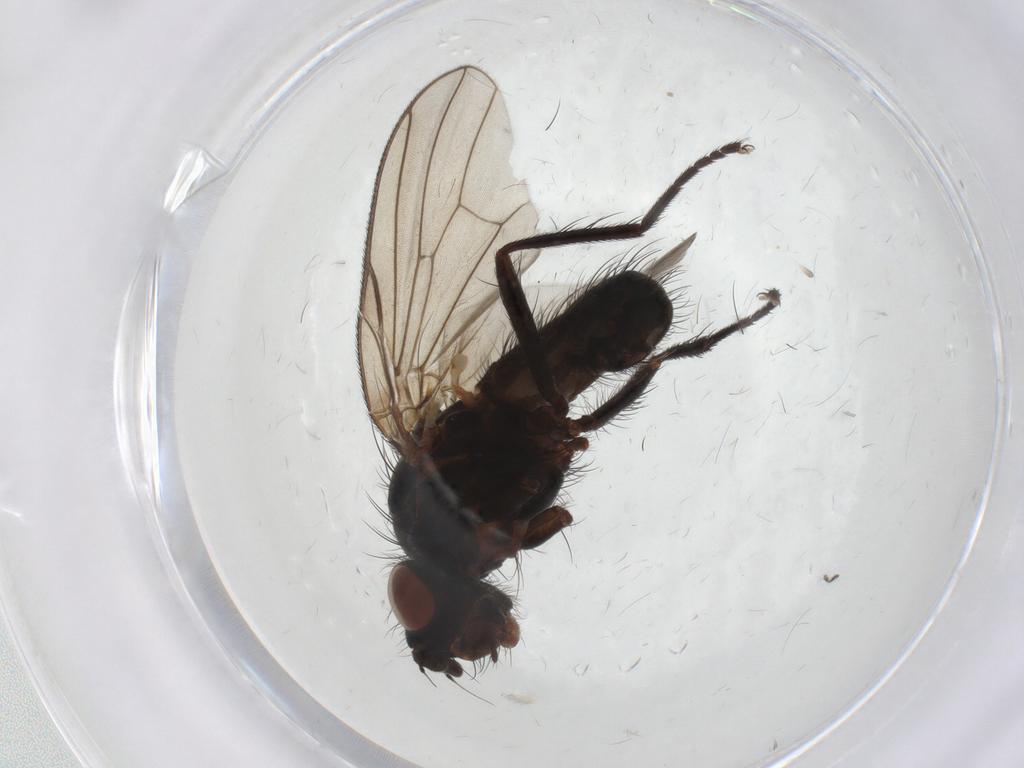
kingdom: Animalia
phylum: Arthropoda
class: Insecta
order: Diptera
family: Anthomyiidae
